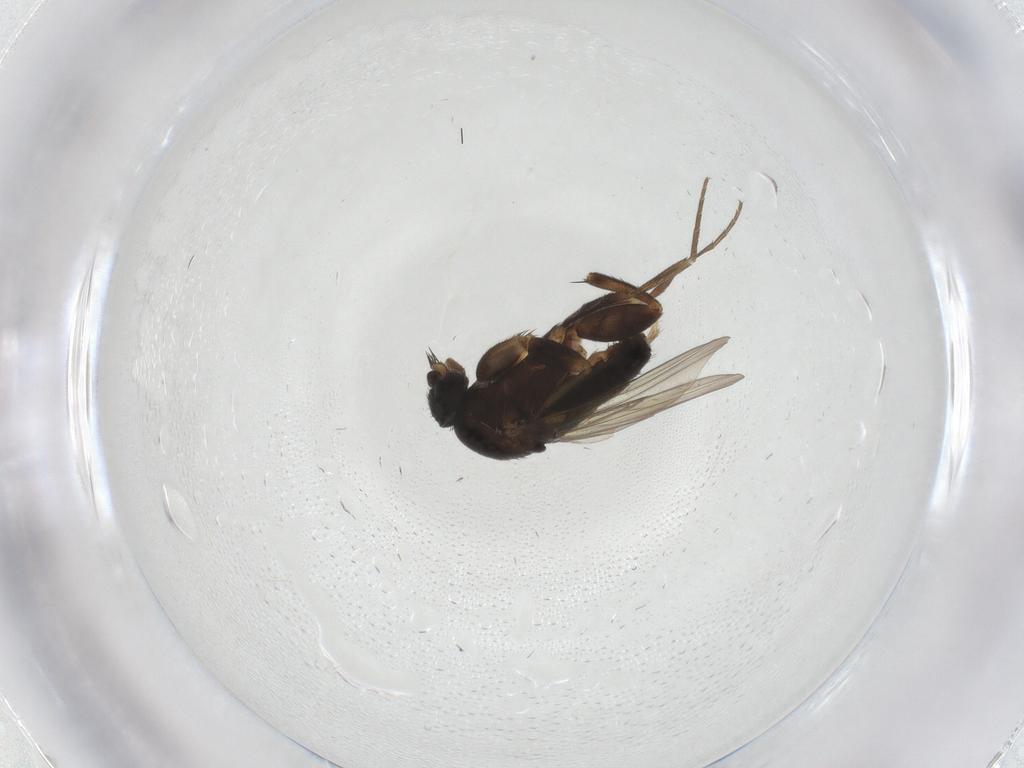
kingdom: Animalia
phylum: Arthropoda
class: Insecta
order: Diptera
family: Phoridae
